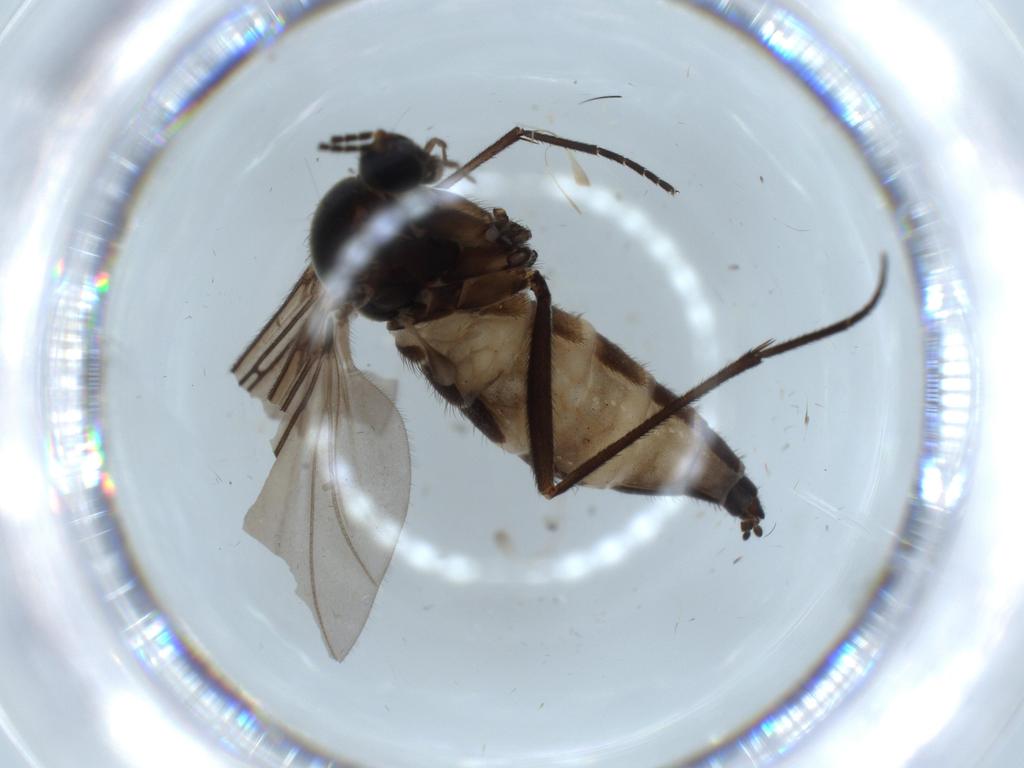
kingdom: Animalia
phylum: Arthropoda
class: Insecta
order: Diptera
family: Sciaridae
